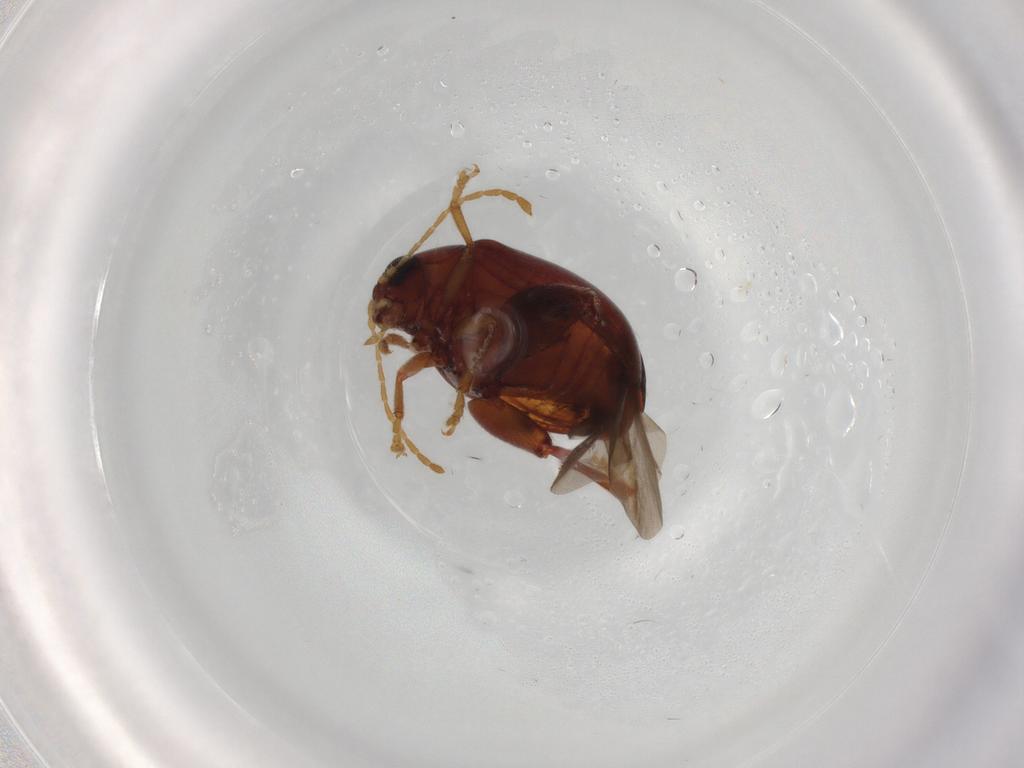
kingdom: Animalia
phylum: Arthropoda
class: Insecta
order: Coleoptera
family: Chrysomelidae
